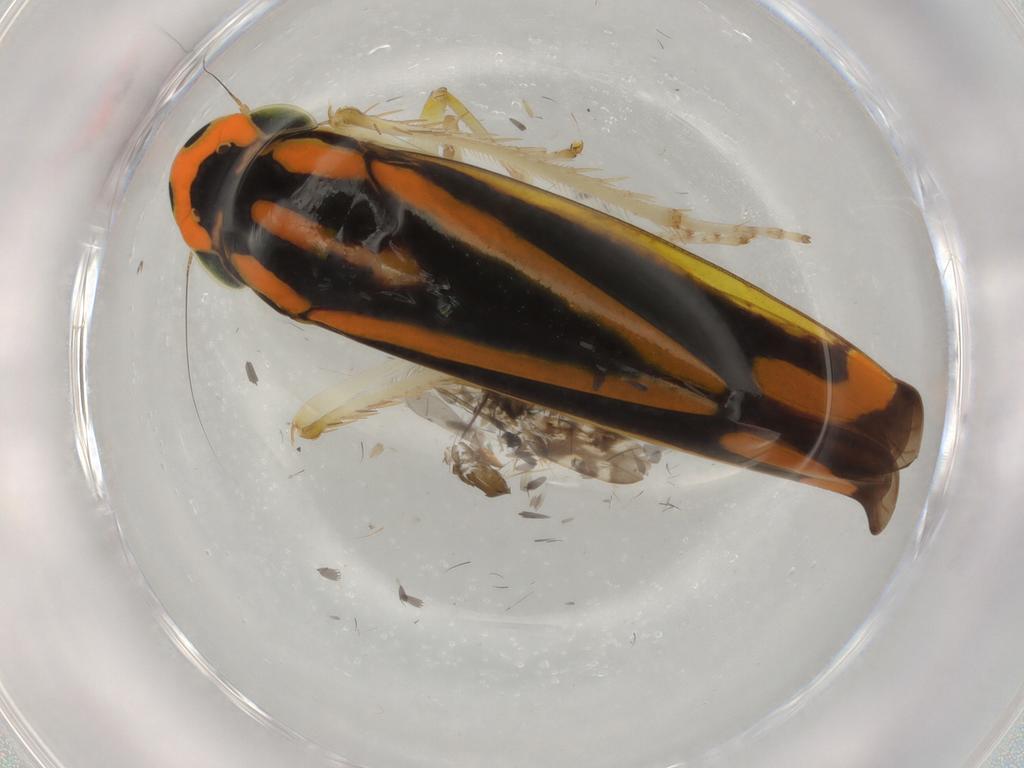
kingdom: Animalia
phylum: Arthropoda
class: Insecta
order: Hemiptera
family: Cicadellidae
